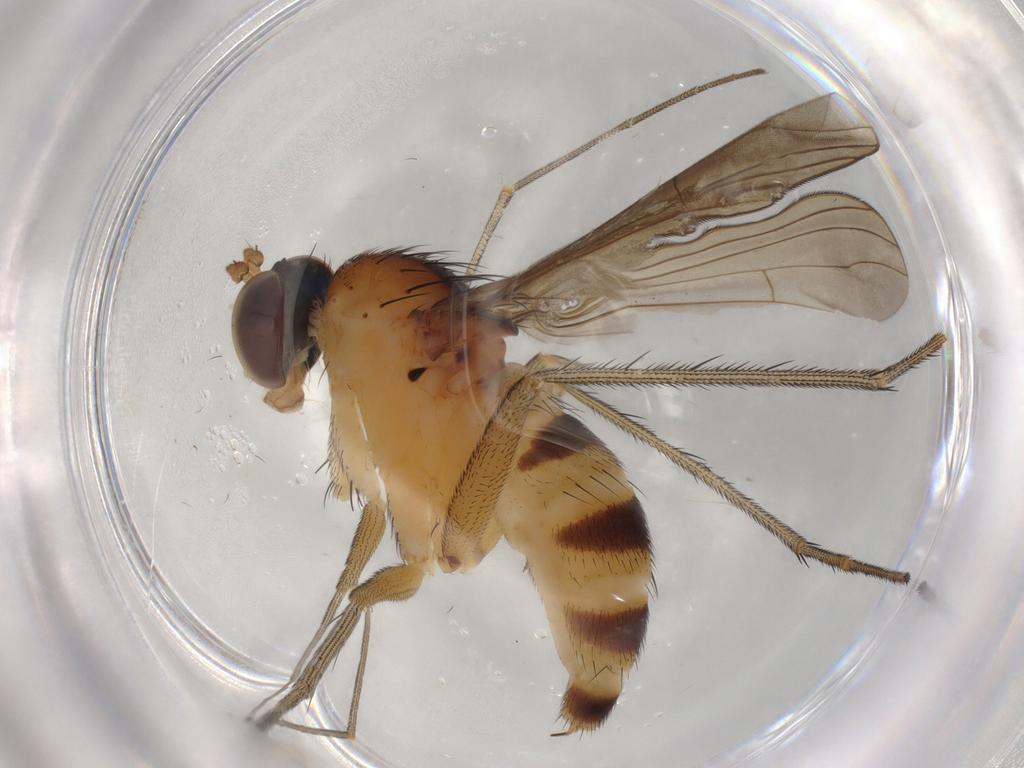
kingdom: Animalia
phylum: Arthropoda
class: Insecta
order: Diptera
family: Dolichopodidae
